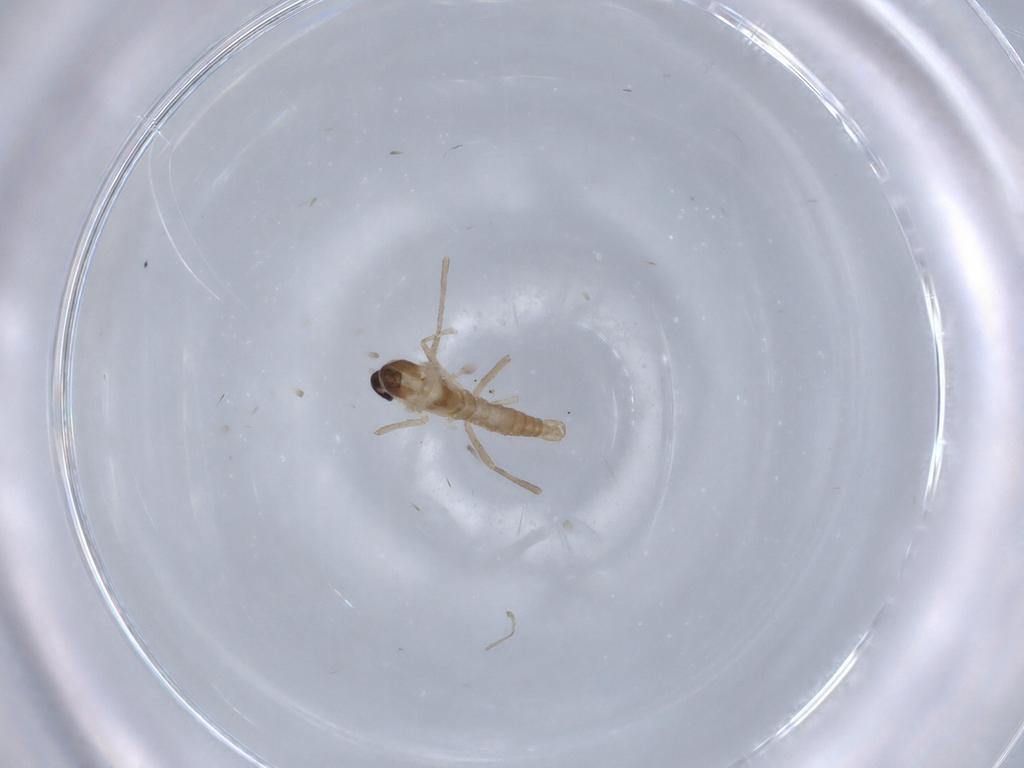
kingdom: Animalia
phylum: Arthropoda
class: Insecta
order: Diptera
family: Cecidomyiidae
